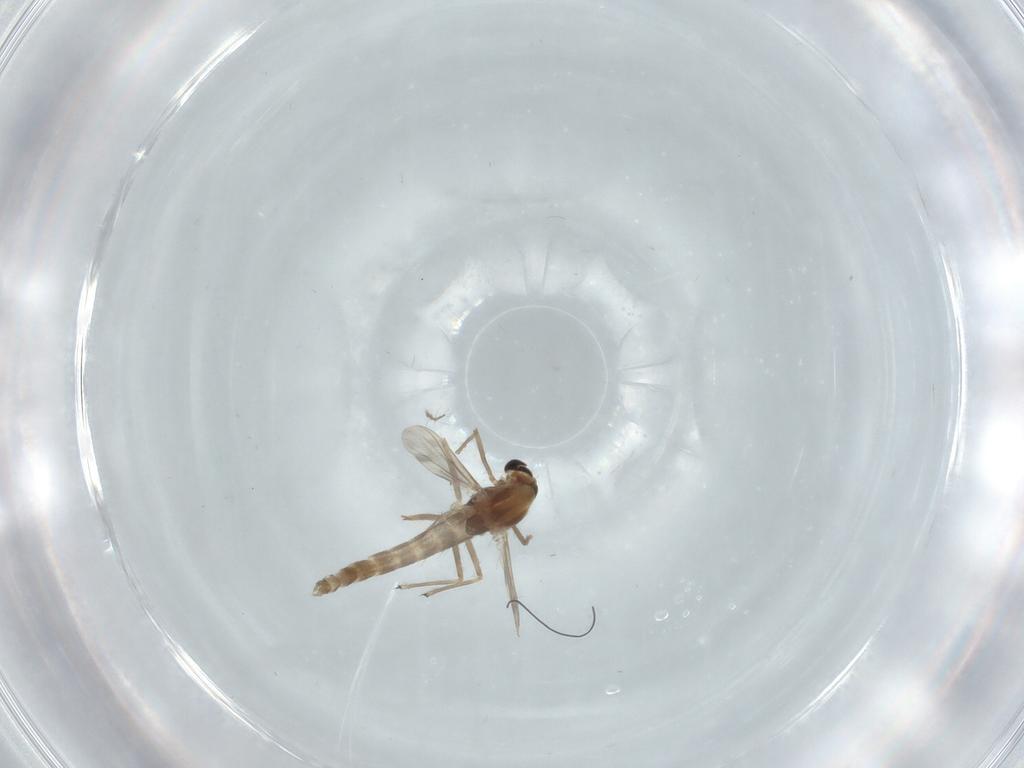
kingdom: Animalia
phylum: Arthropoda
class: Insecta
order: Diptera
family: Chironomidae
